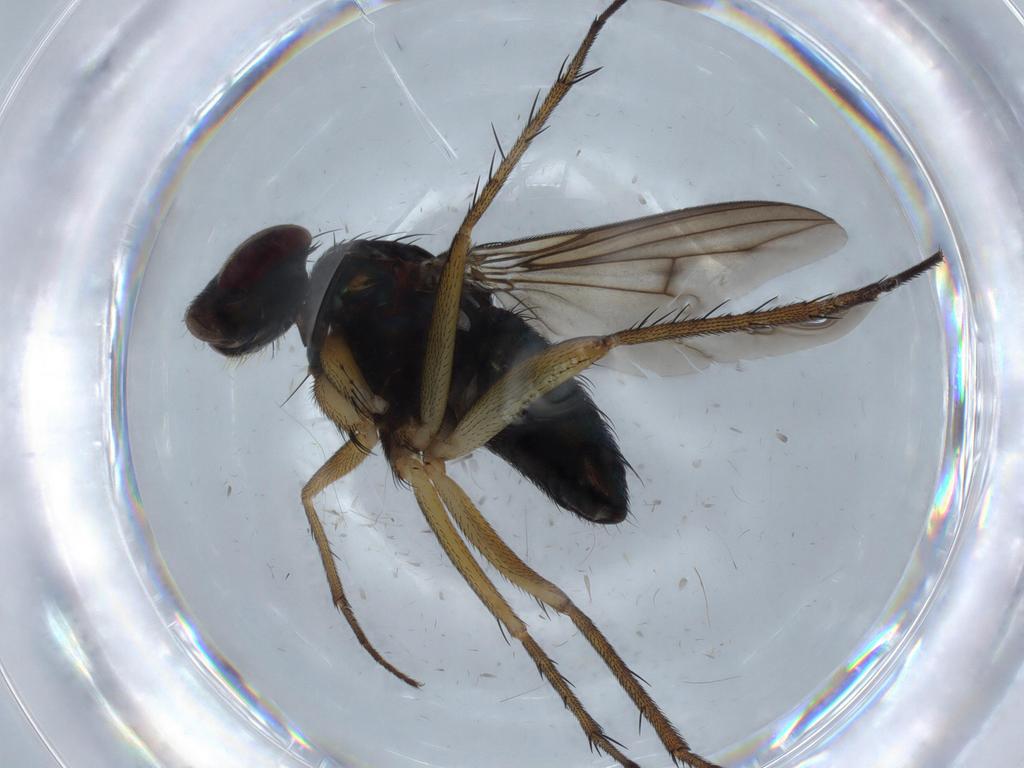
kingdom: Animalia
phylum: Arthropoda
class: Insecta
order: Diptera
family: Dolichopodidae
